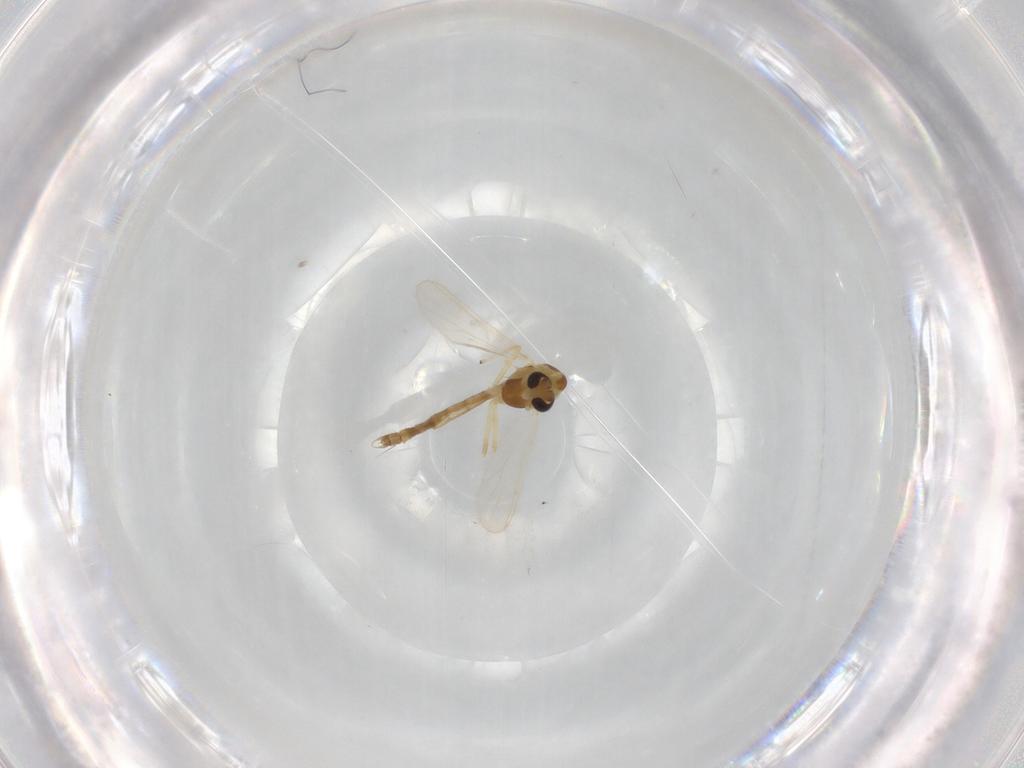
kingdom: Animalia
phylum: Arthropoda
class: Insecta
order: Diptera
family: Chironomidae
